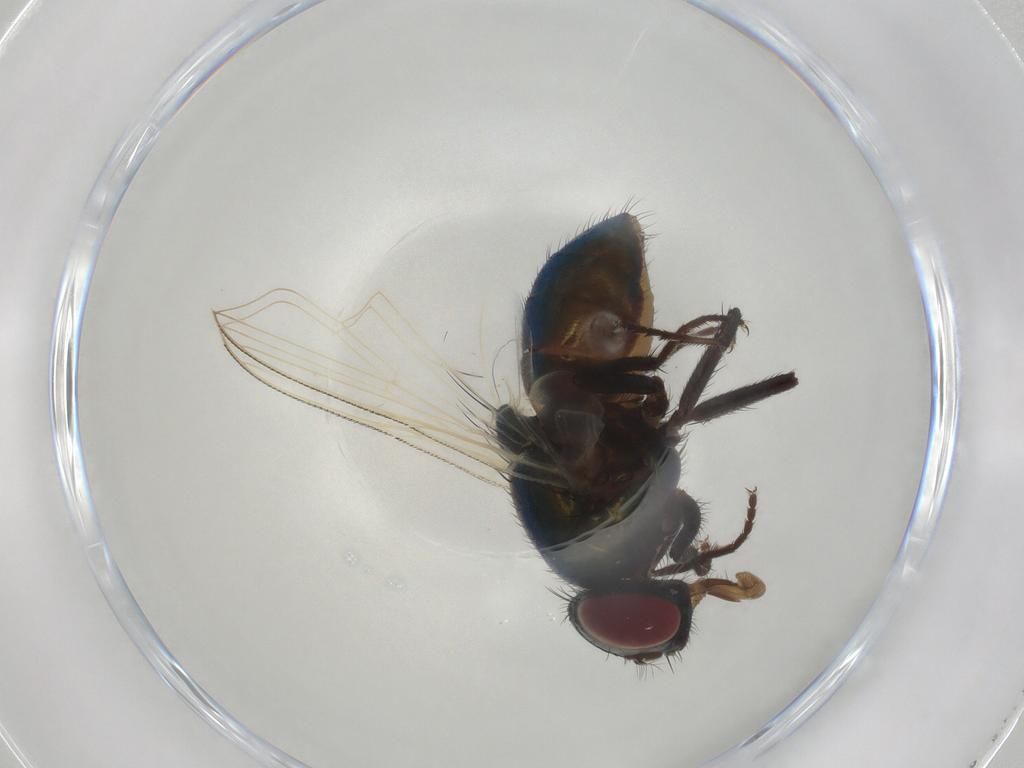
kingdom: Animalia
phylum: Arthropoda
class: Insecta
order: Diptera
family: Muscidae
